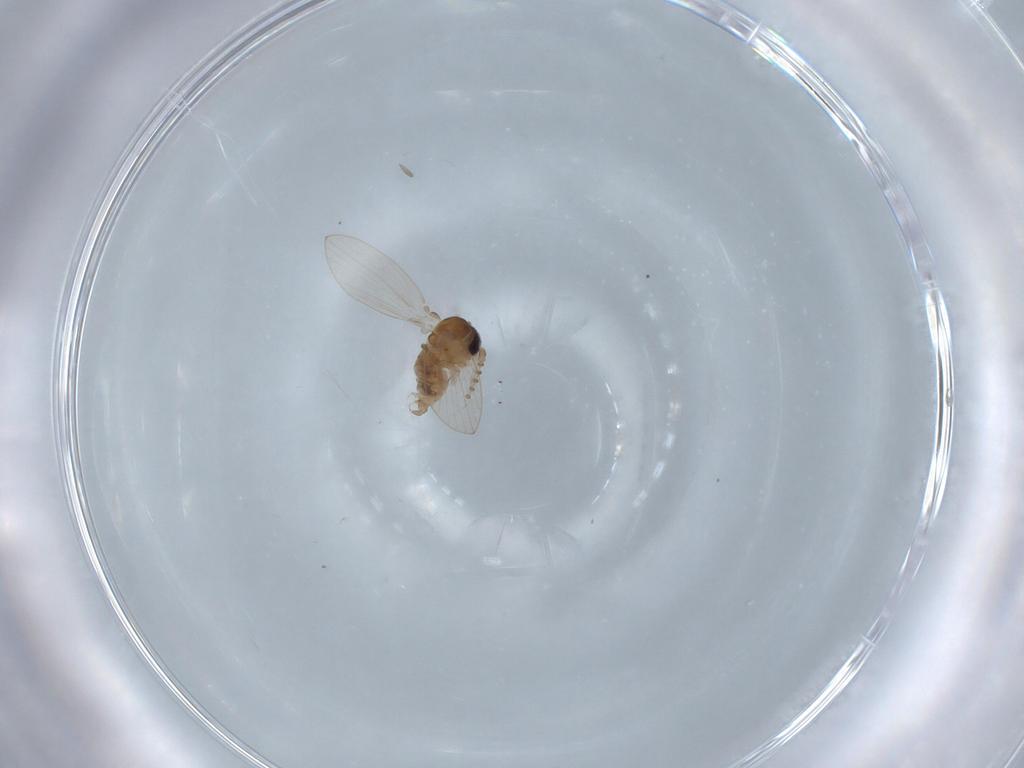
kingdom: Animalia
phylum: Arthropoda
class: Insecta
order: Diptera
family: Psychodidae
